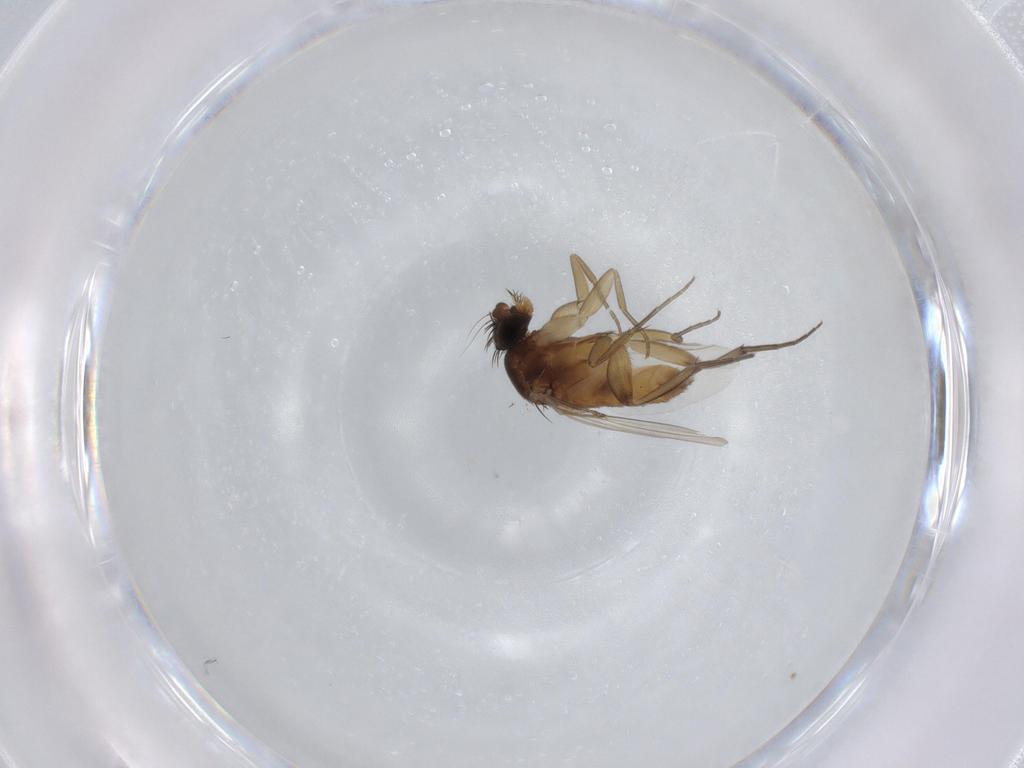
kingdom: Animalia
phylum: Arthropoda
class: Insecta
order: Diptera
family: Phoridae
